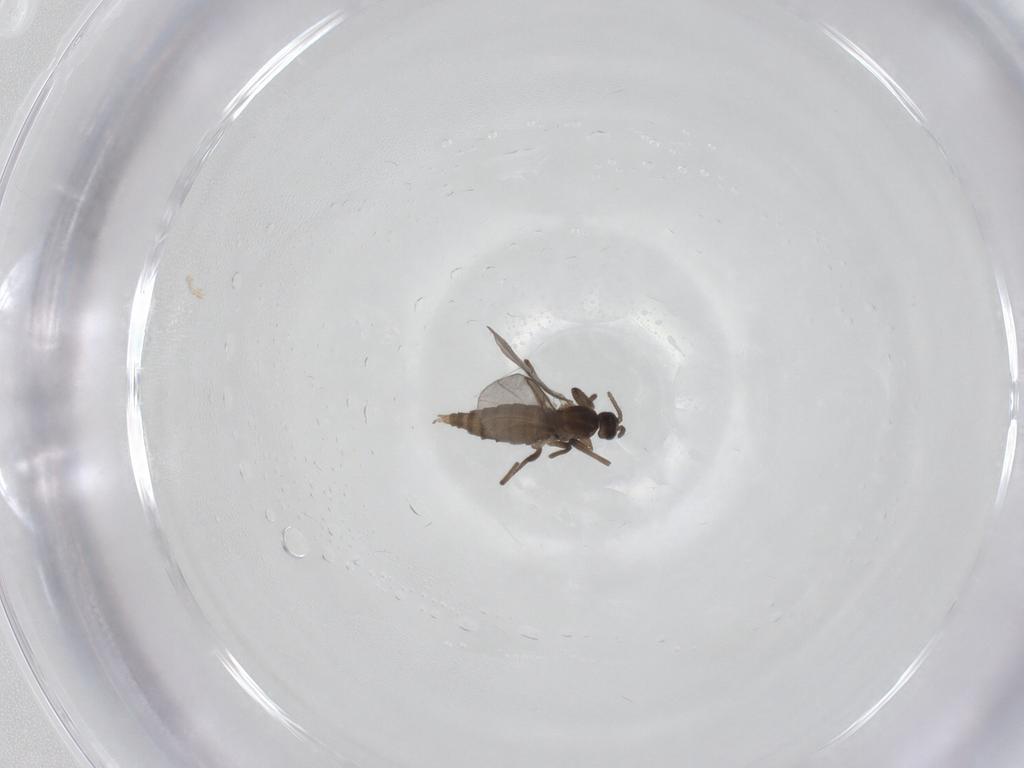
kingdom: Animalia
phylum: Arthropoda
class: Insecta
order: Diptera
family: Cecidomyiidae
